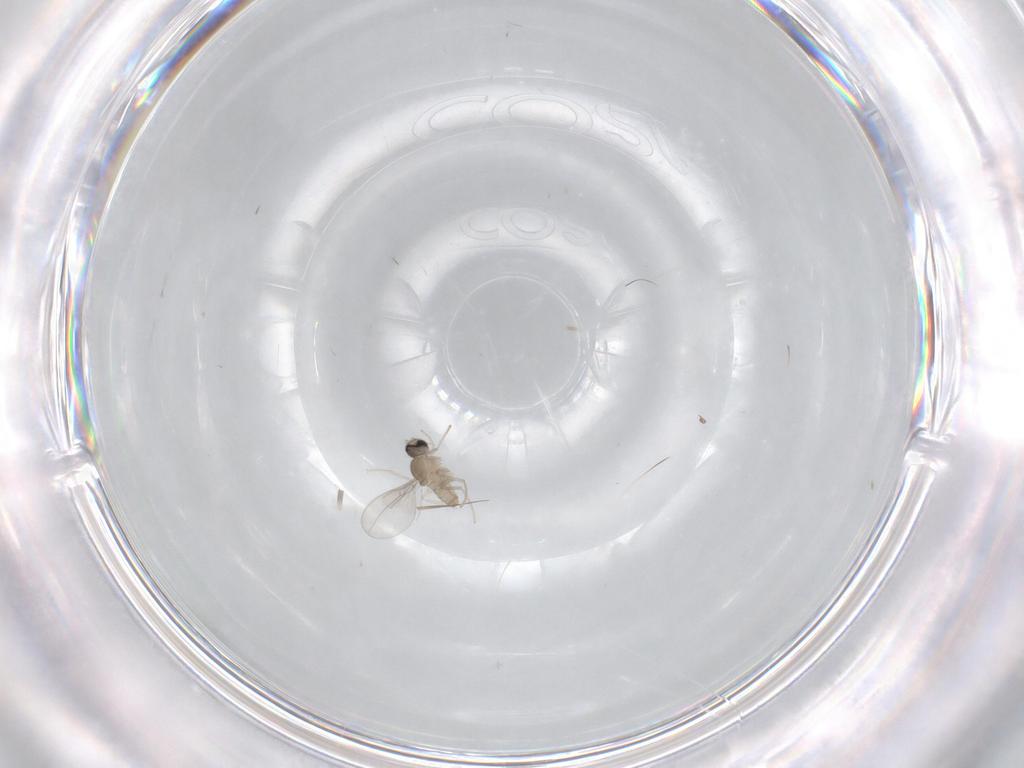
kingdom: Animalia
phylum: Arthropoda
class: Insecta
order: Diptera
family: Cecidomyiidae
